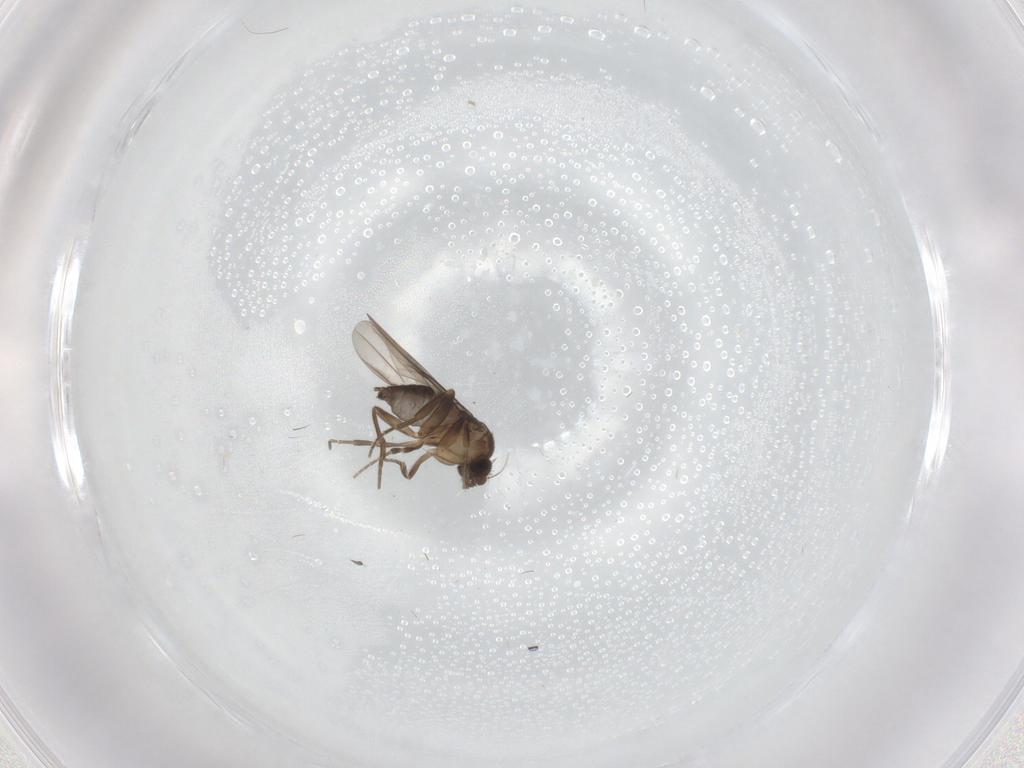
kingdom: Animalia
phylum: Arthropoda
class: Insecta
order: Diptera
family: Phoridae
